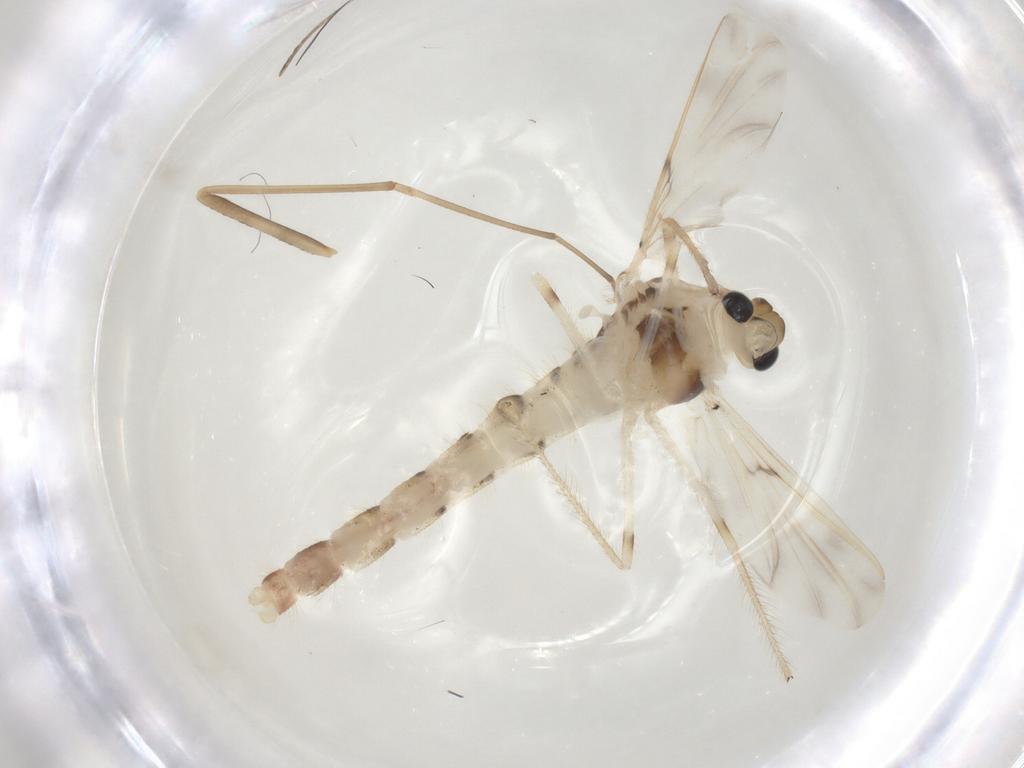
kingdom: Animalia
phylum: Arthropoda
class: Insecta
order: Diptera
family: Chironomidae
